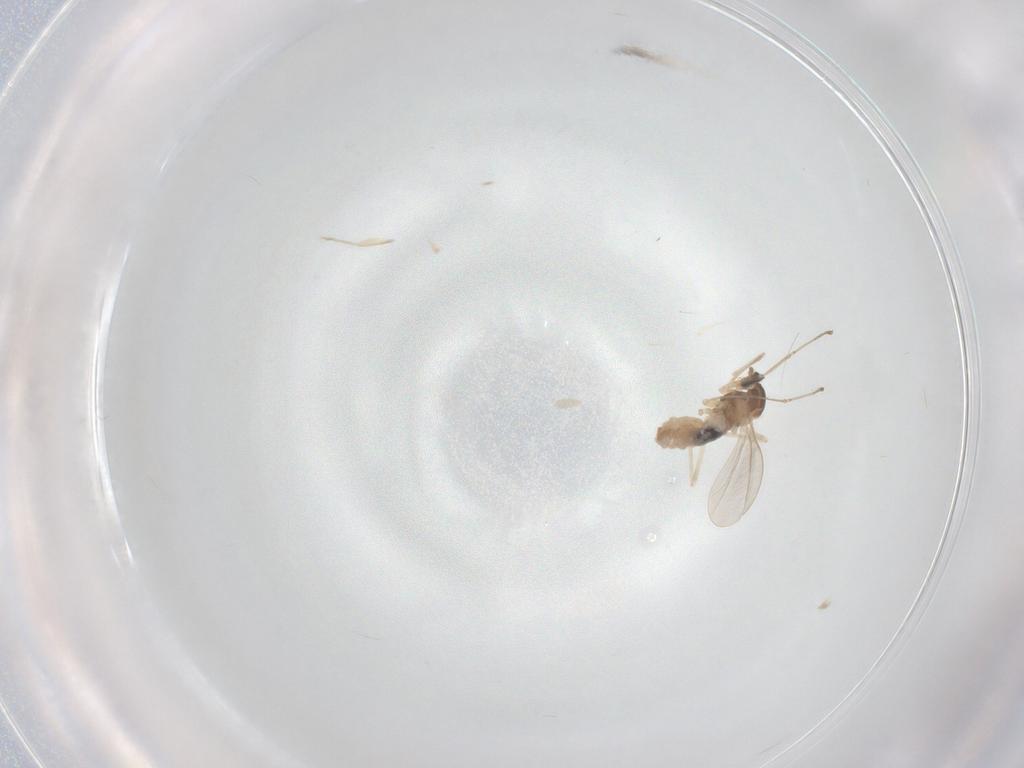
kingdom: Animalia
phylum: Arthropoda
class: Insecta
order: Diptera
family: Cecidomyiidae
